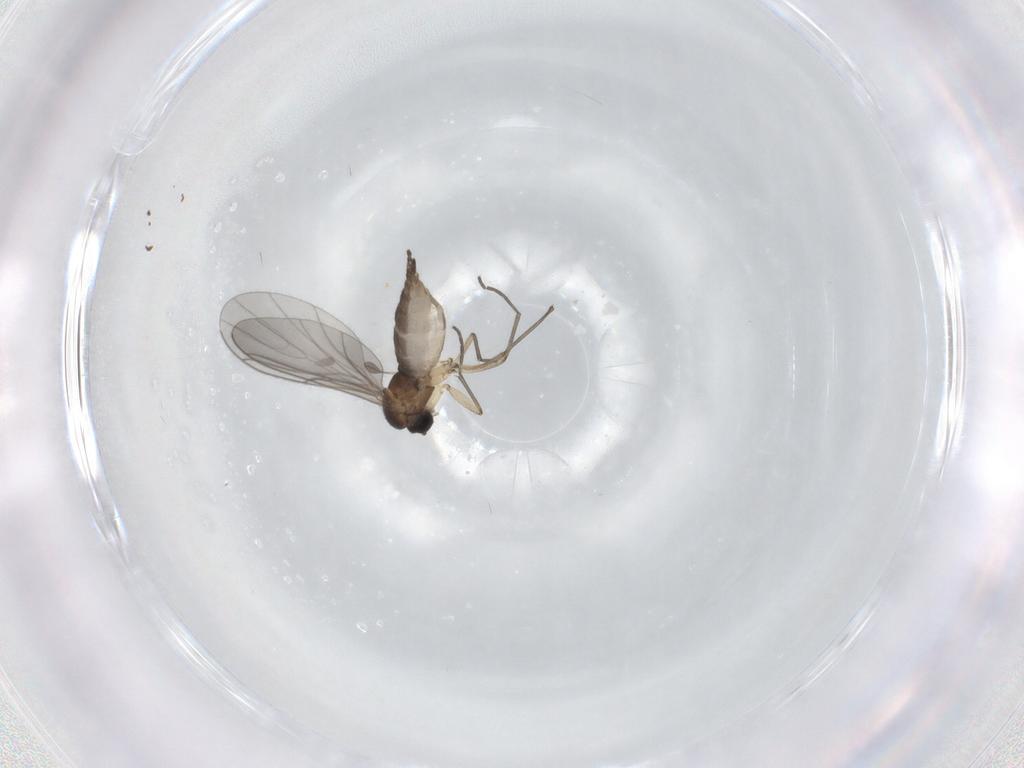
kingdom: Animalia
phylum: Arthropoda
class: Insecta
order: Diptera
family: Sciaridae
